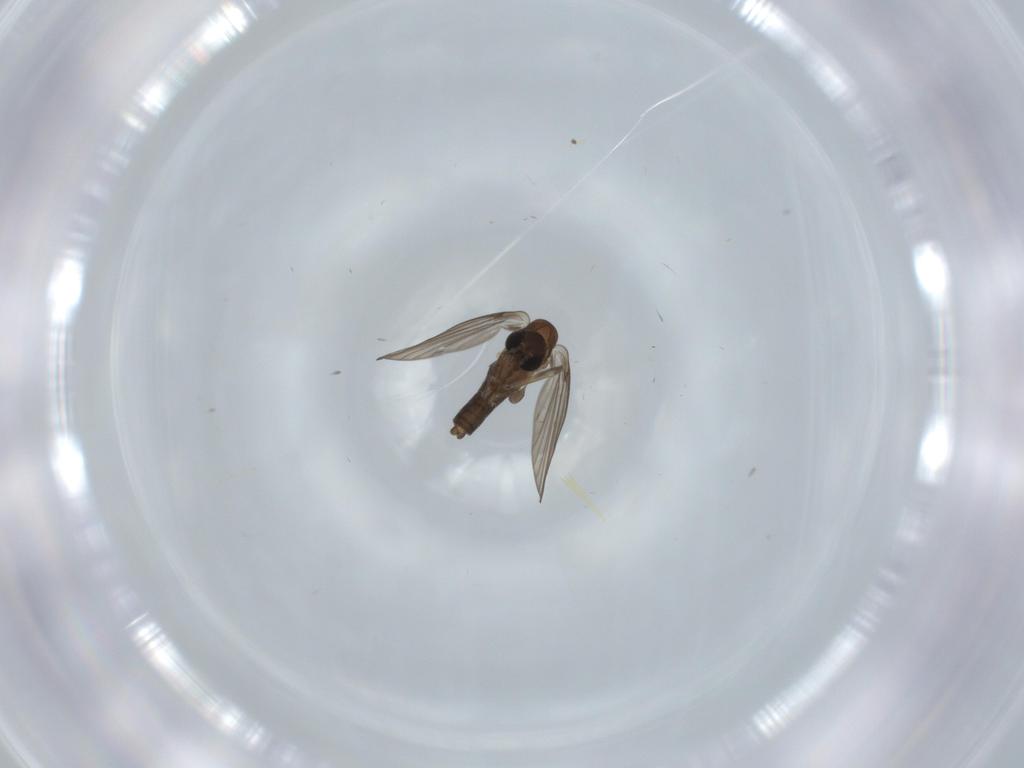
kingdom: Animalia
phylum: Arthropoda
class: Insecta
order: Diptera
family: Psychodidae
